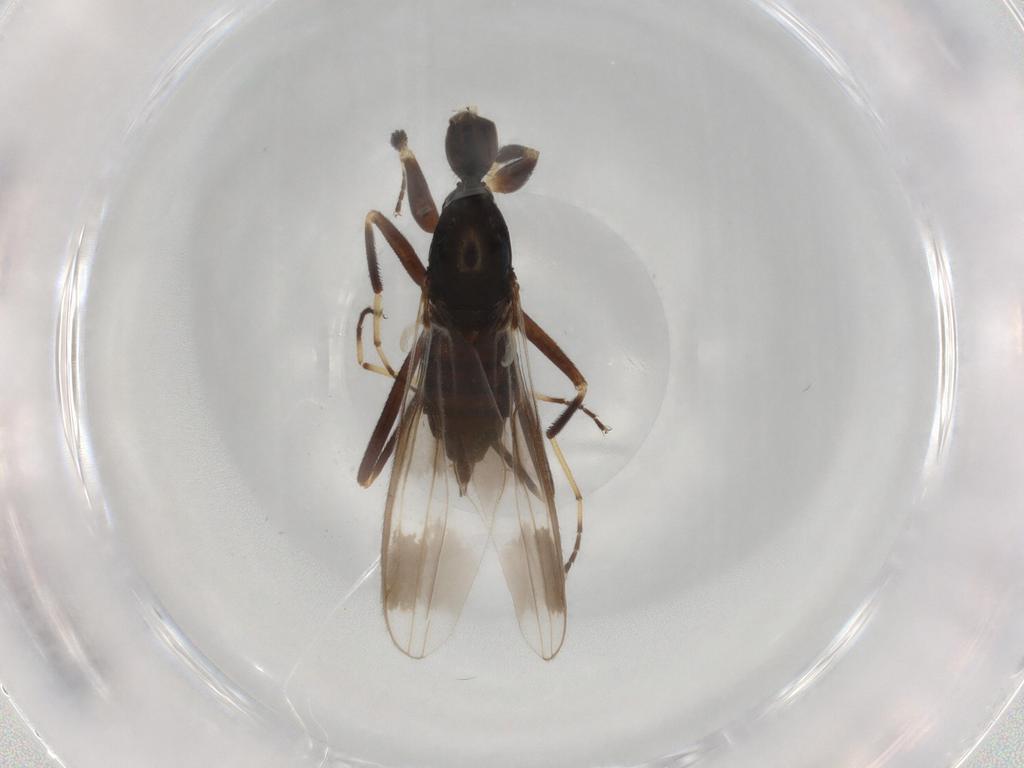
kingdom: Animalia
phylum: Arthropoda
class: Insecta
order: Diptera
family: Hybotidae
